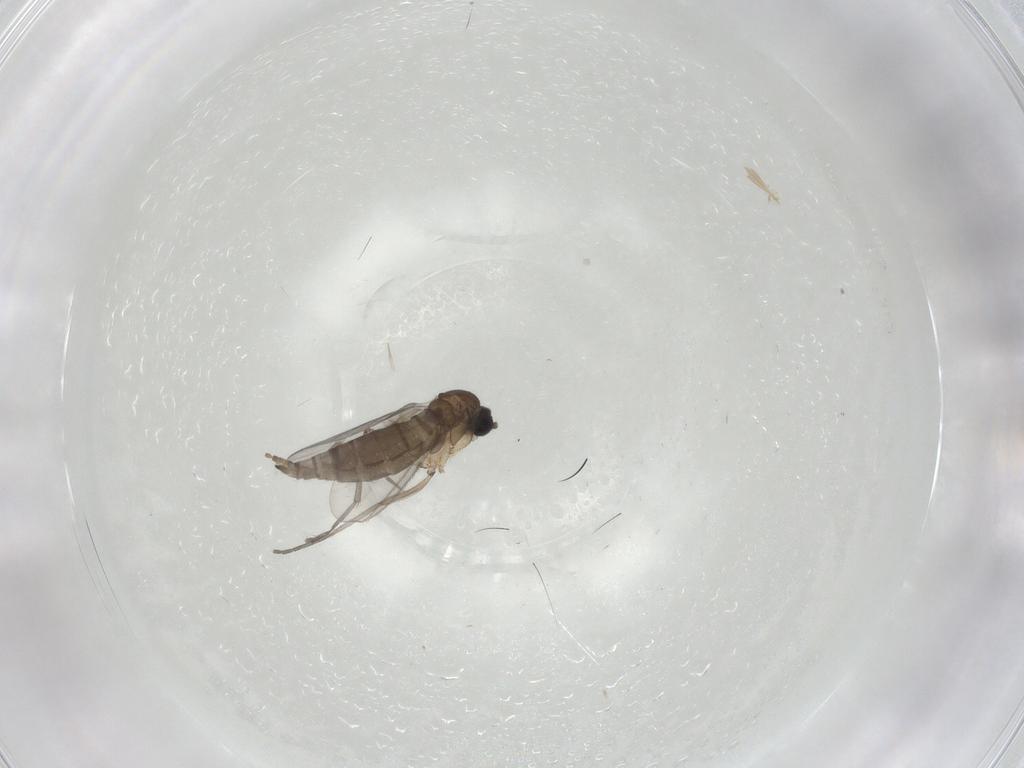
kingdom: Animalia
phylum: Arthropoda
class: Insecta
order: Diptera
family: Sciaridae
